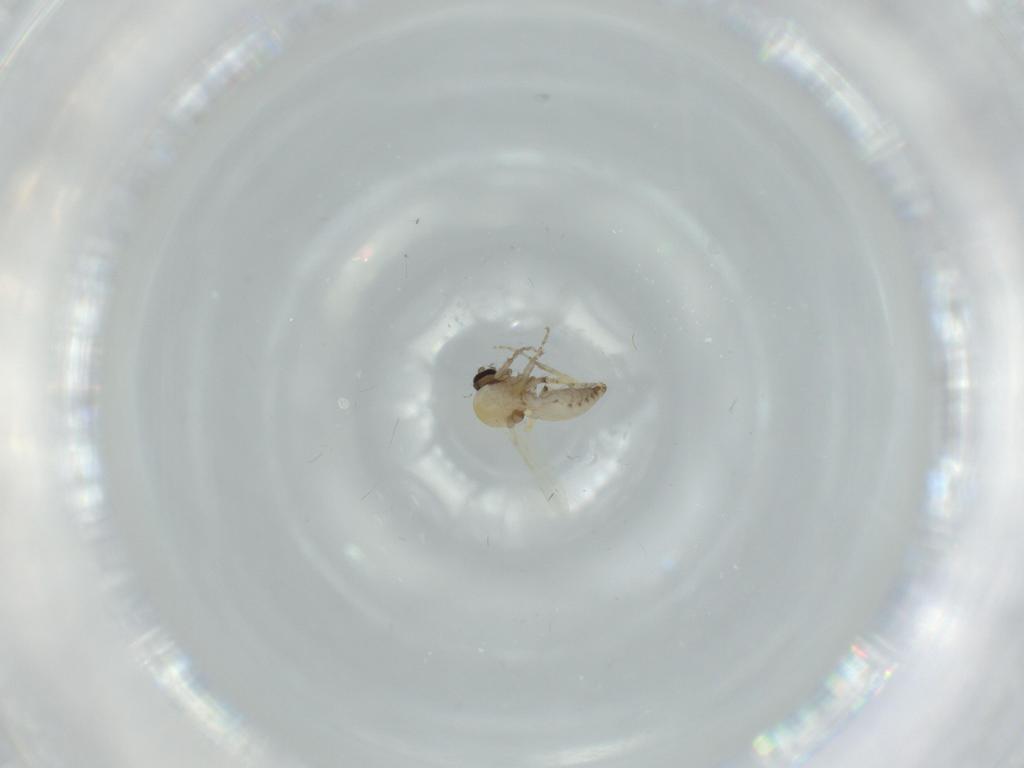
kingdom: Animalia
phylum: Arthropoda
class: Insecta
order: Diptera
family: Ceratopogonidae
